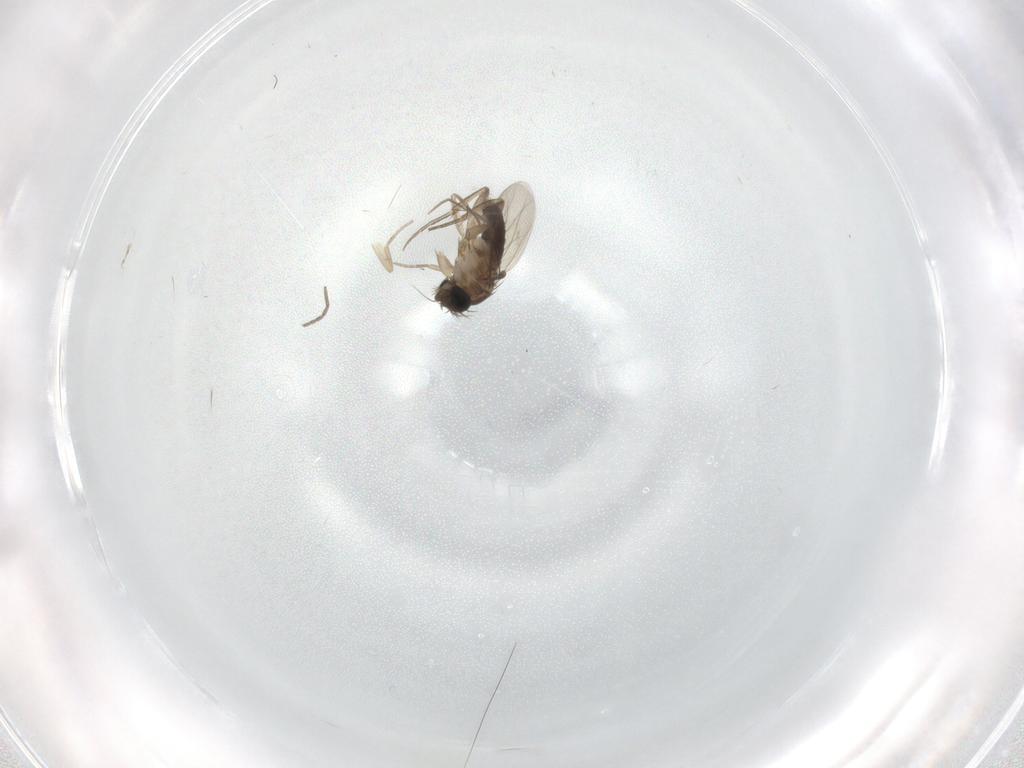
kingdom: Animalia
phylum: Arthropoda
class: Insecta
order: Diptera
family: Phoridae
